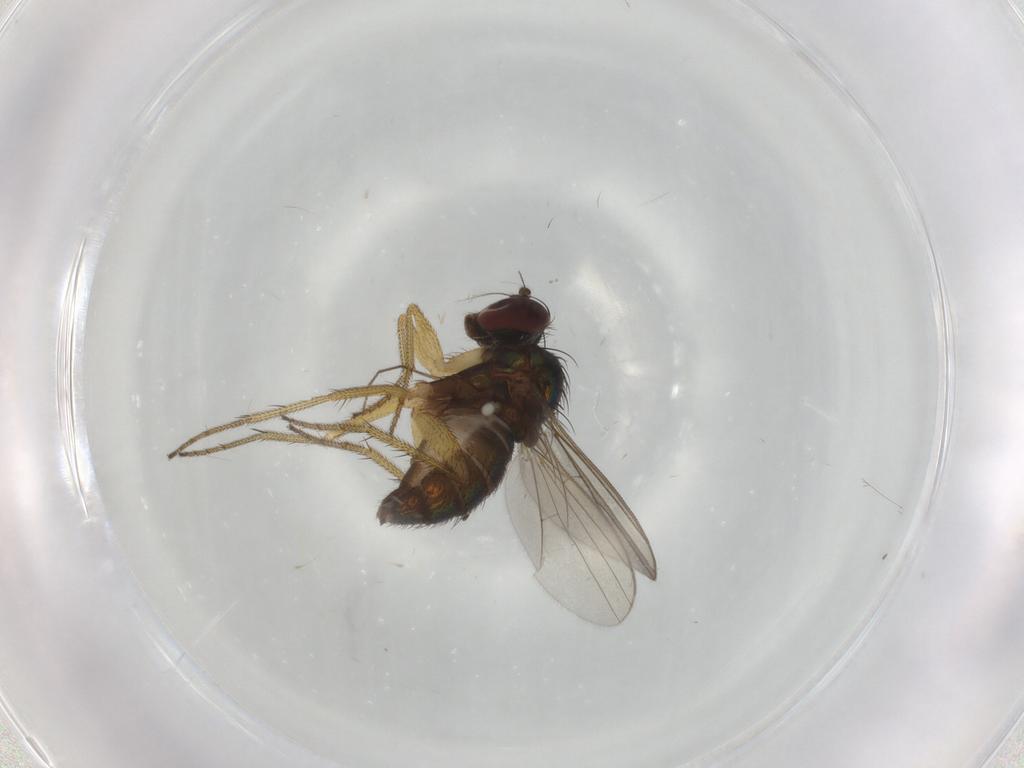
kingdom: Animalia
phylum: Arthropoda
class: Insecta
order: Diptera
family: Dolichopodidae
